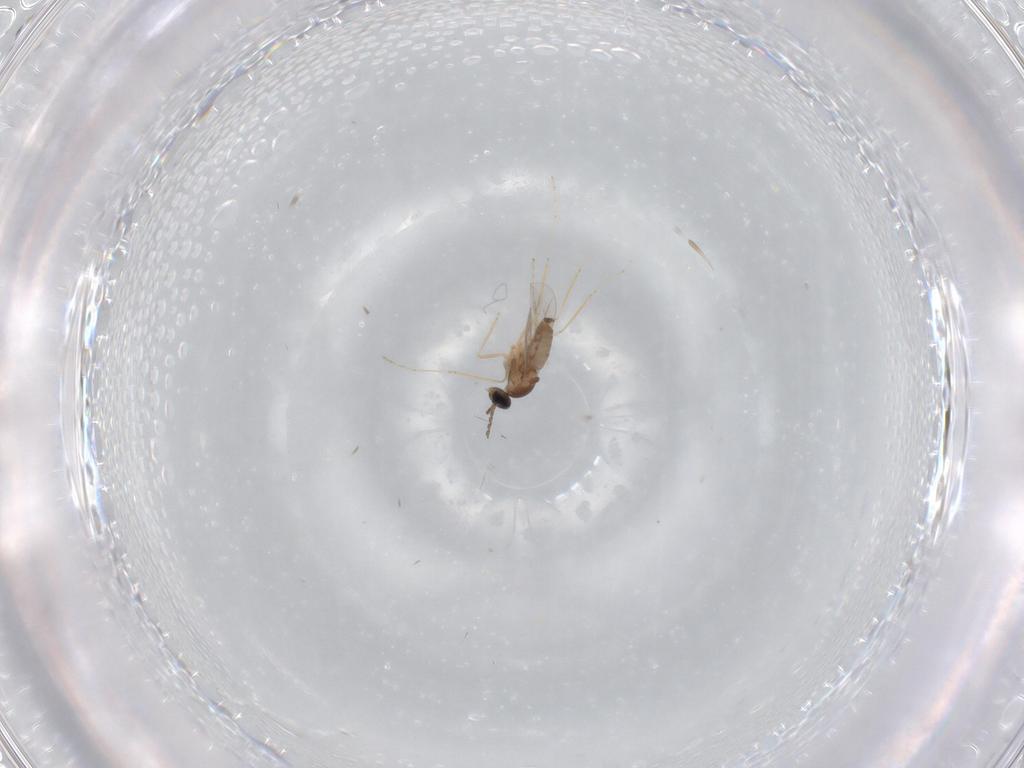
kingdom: Animalia
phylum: Arthropoda
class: Insecta
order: Diptera
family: Cecidomyiidae
